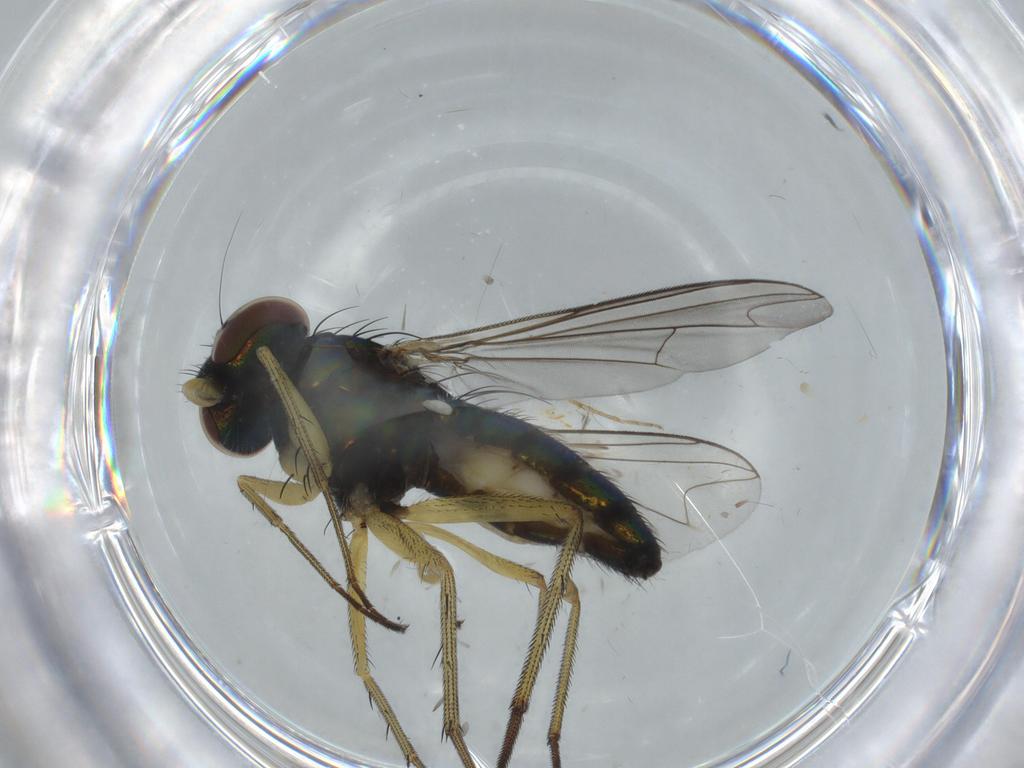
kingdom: Animalia
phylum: Arthropoda
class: Insecta
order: Diptera
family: Dolichopodidae
